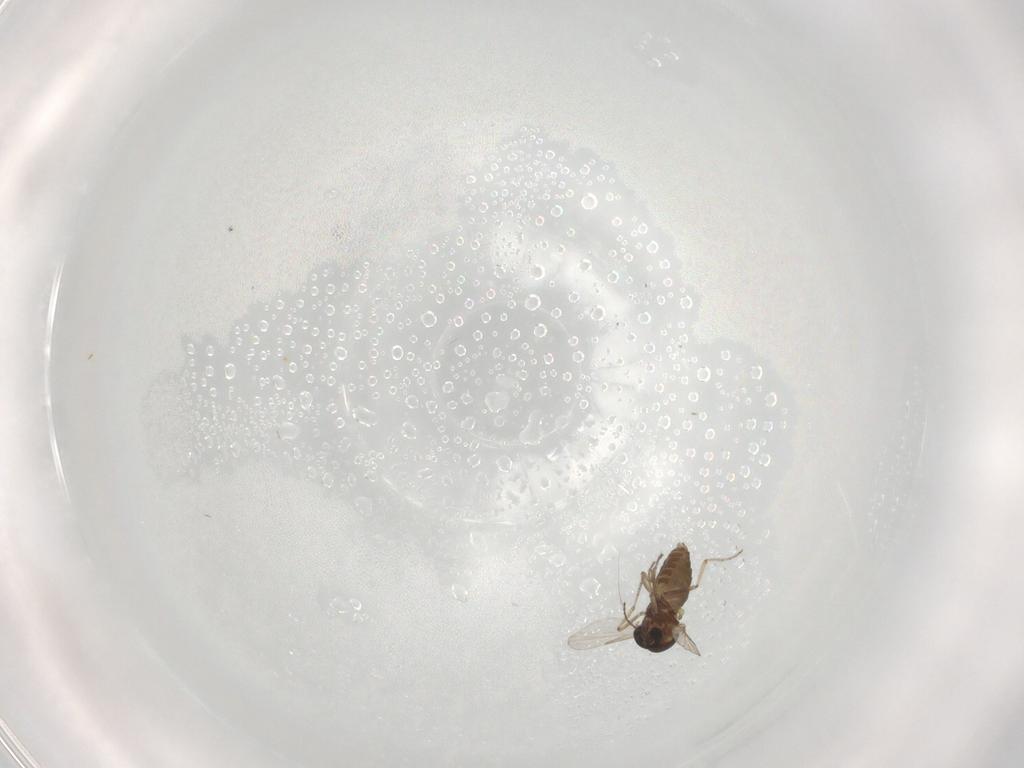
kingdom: Animalia
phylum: Arthropoda
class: Insecta
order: Diptera
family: Ceratopogonidae
